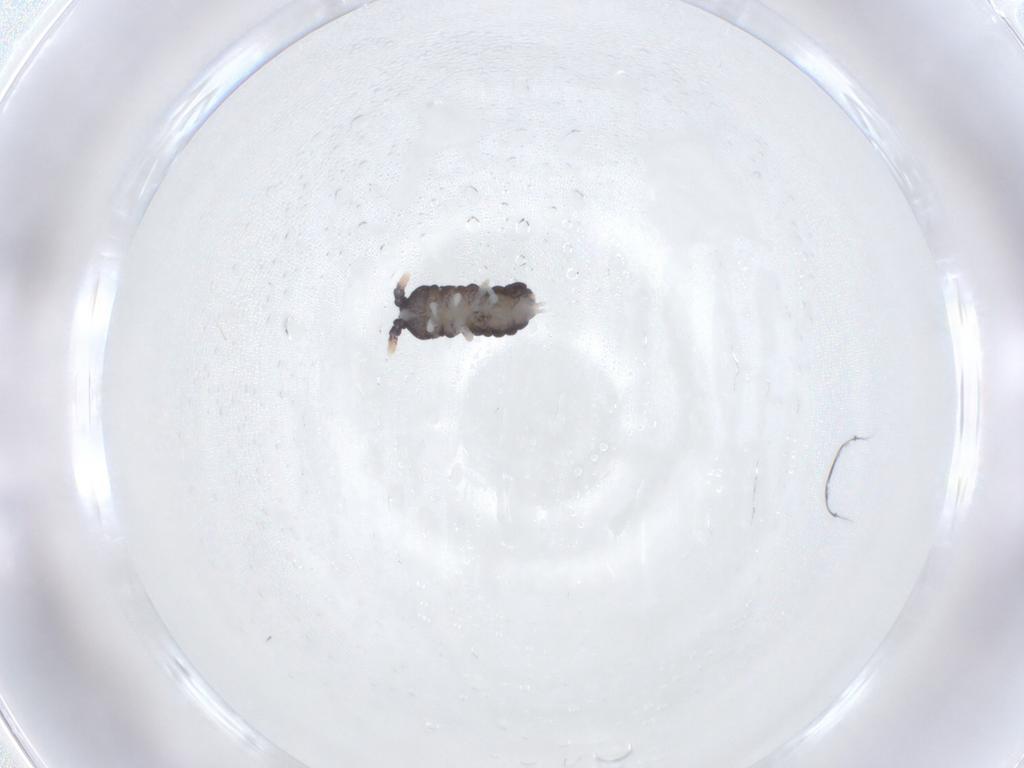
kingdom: Animalia
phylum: Arthropoda
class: Collembola
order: Poduromorpha
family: Neanuridae
